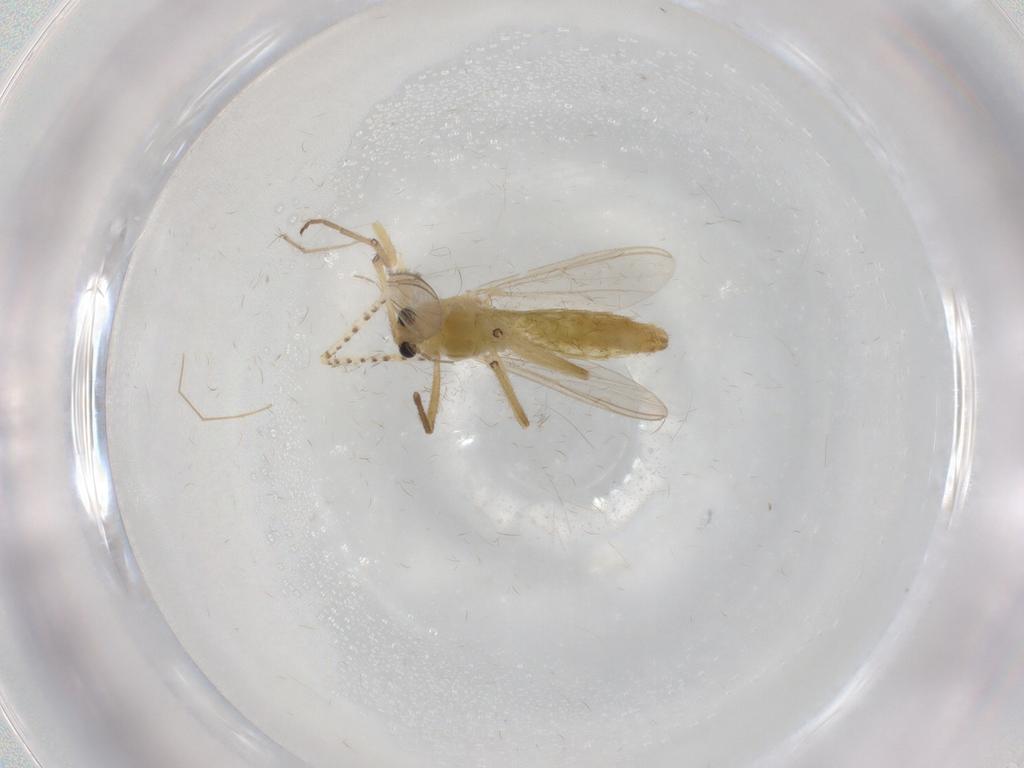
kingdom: Animalia
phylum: Arthropoda
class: Insecta
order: Diptera
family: Chironomidae
